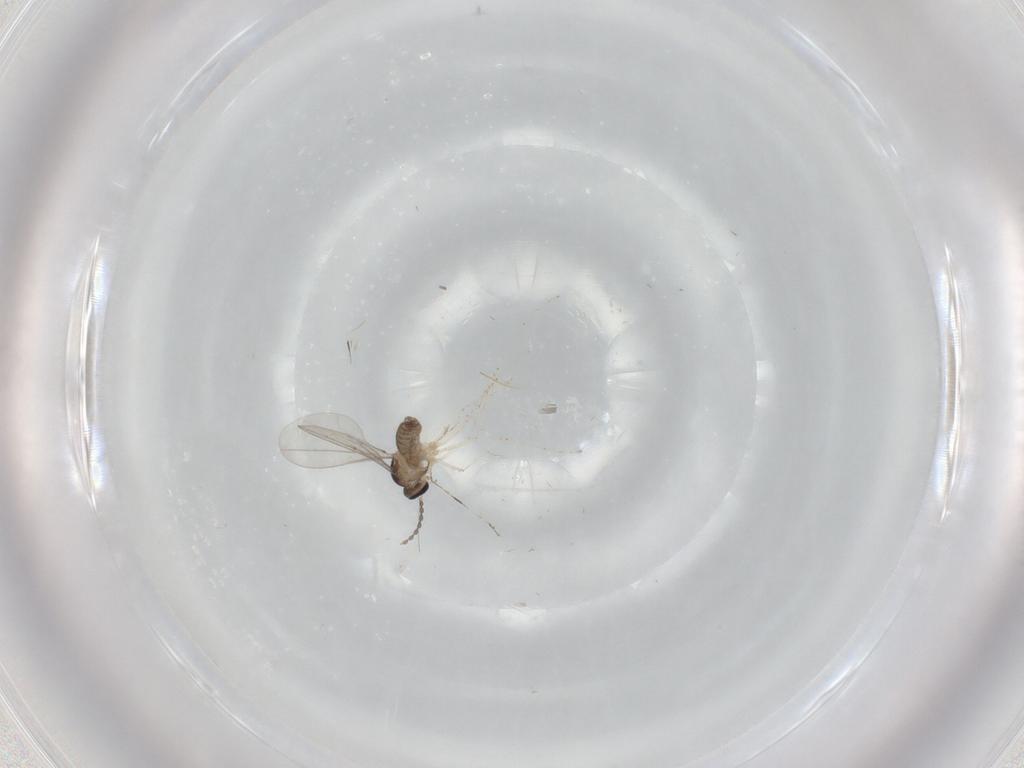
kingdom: Animalia
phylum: Arthropoda
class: Insecta
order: Diptera
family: Cecidomyiidae
